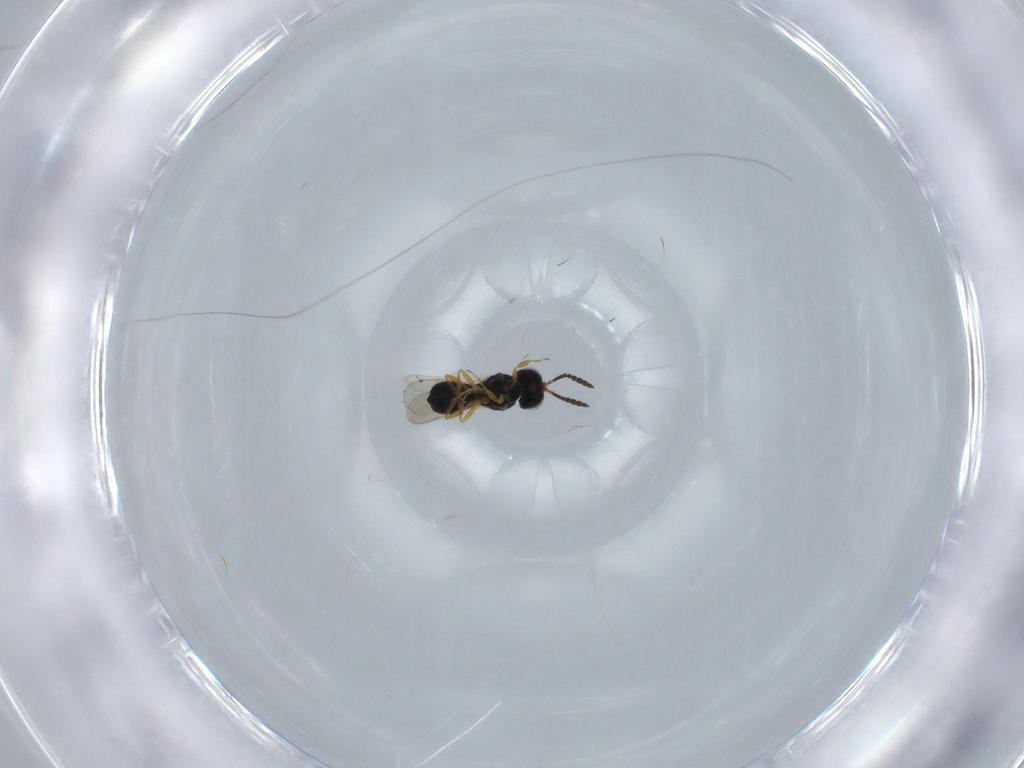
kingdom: Animalia
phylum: Arthropoda
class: Insecta
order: Hymenoptera
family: Scelionidae
